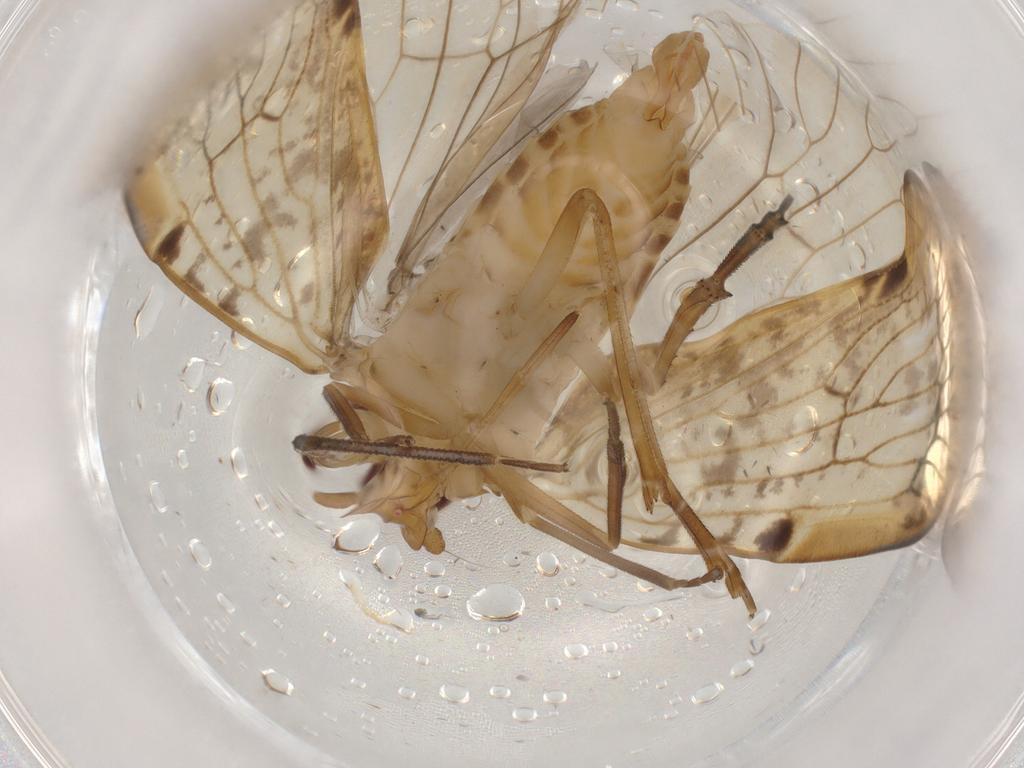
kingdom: Animalia
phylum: Arthropoda
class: Insecta
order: Hemiptera
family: Cixiidae
